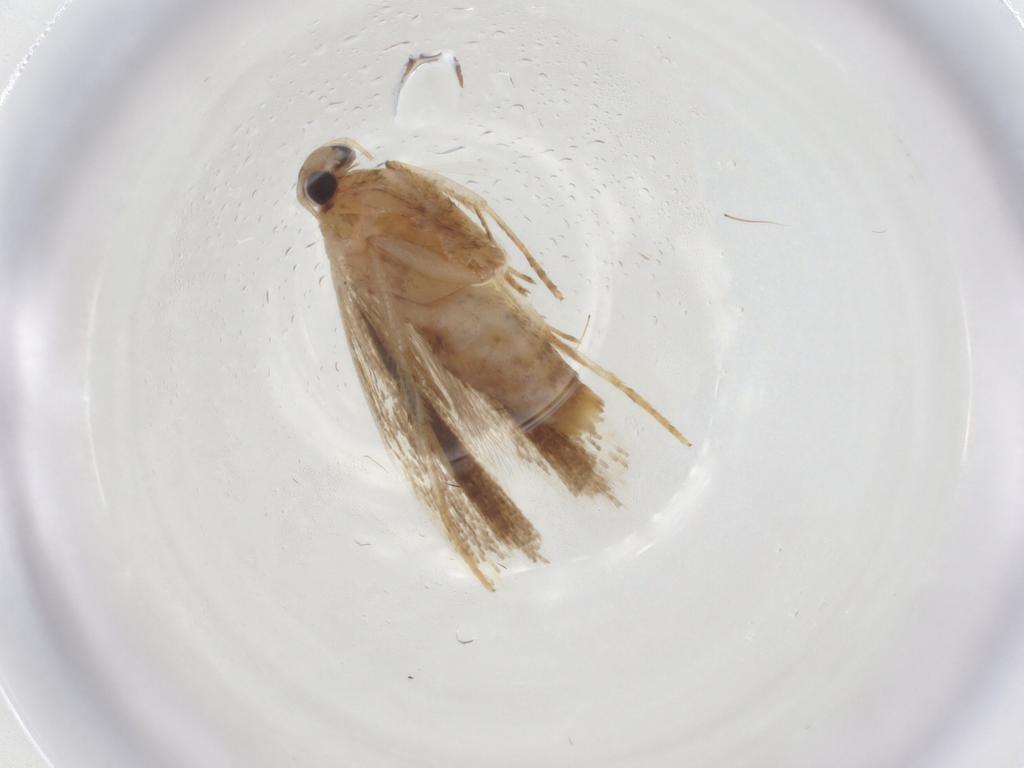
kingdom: Animalia
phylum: Arthropoda
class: Insecta
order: Lepidoptera
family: Gelechiidae
